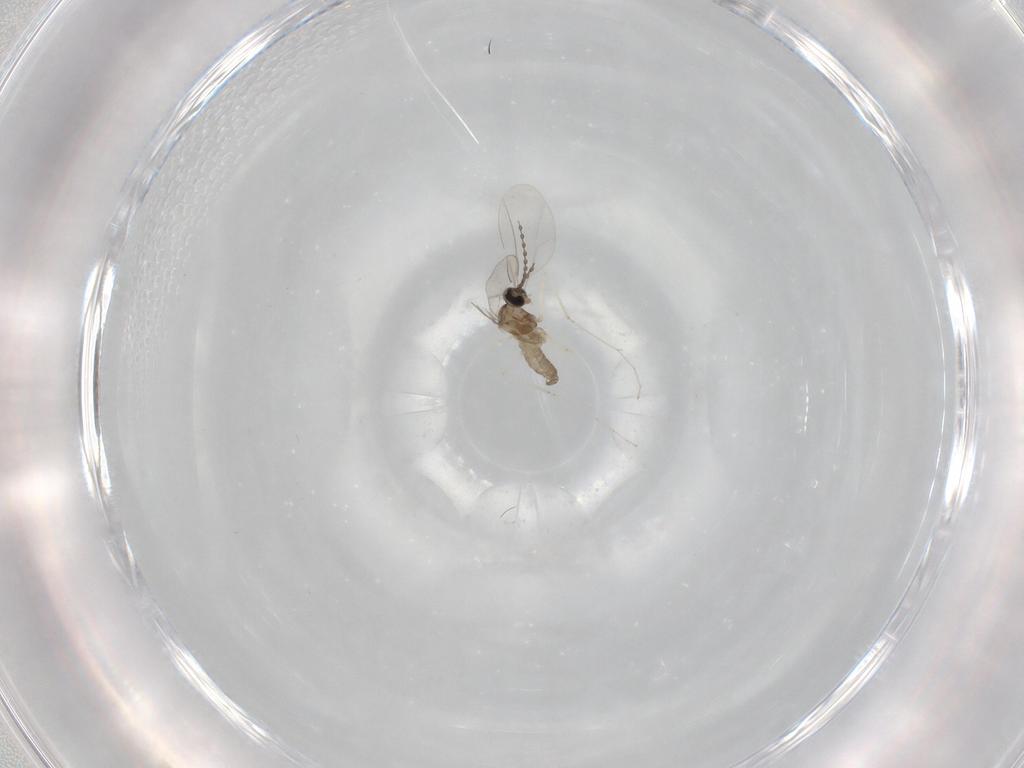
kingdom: Animalia
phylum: Arthropoda
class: Insecta
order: Diptera
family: Cecidomyiidae
